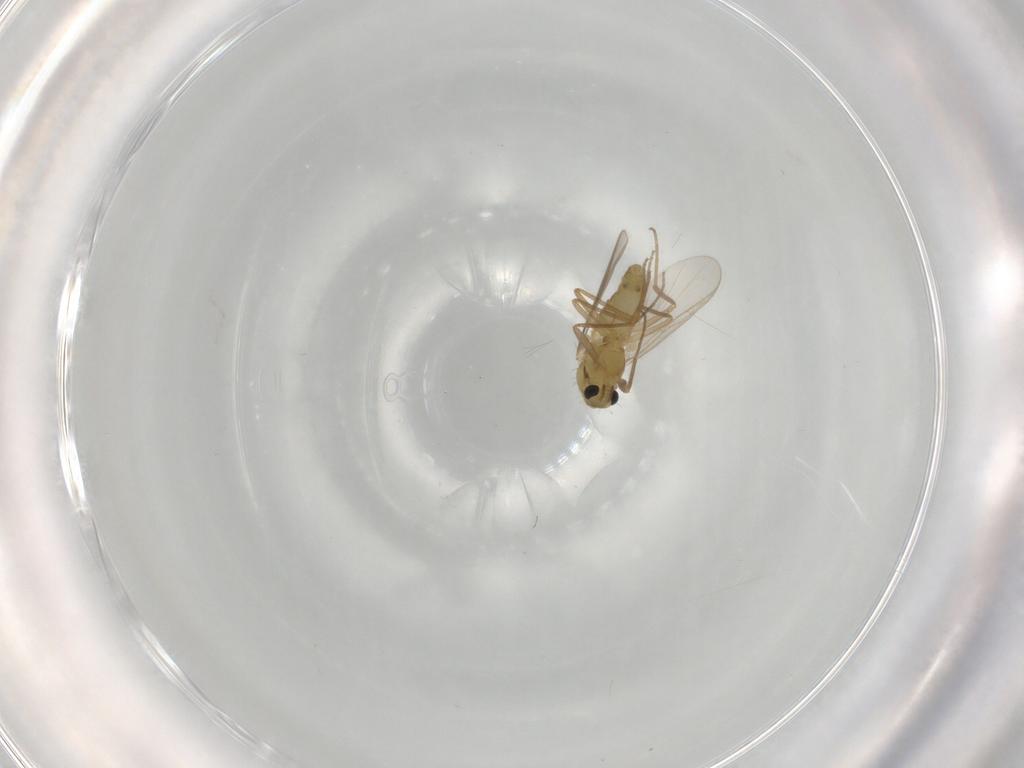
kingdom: Animalia
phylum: Arthropoda
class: Insecta
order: Diptera
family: Chironomidae
